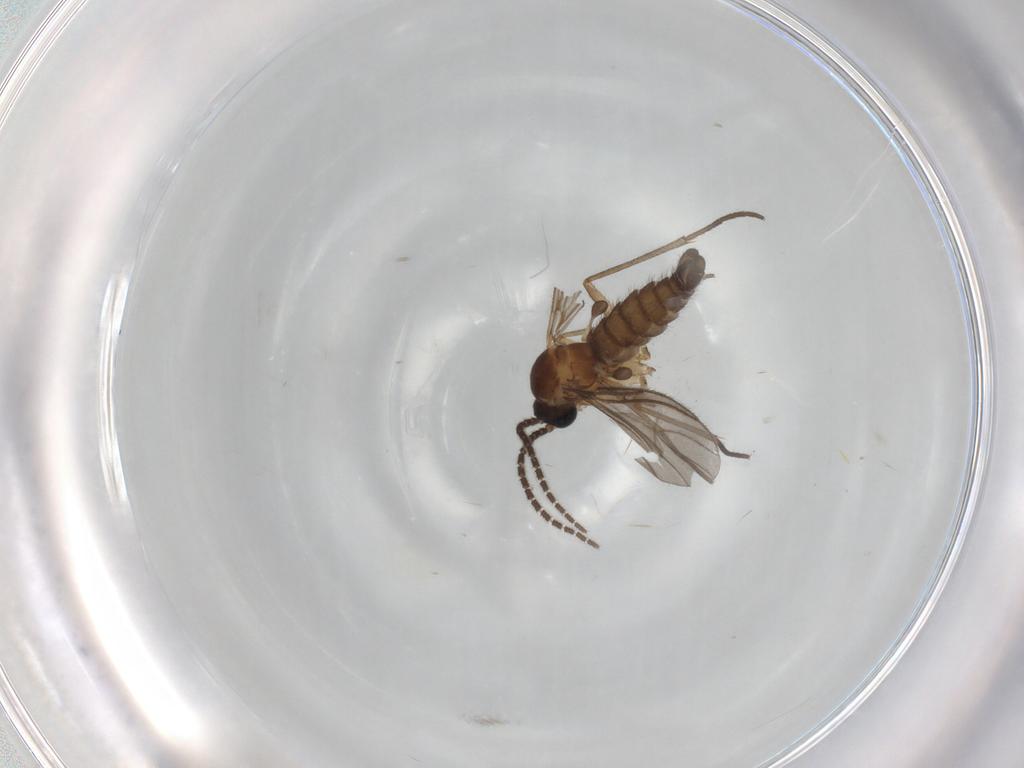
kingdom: Animalia
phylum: Arthropoda
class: Insecta
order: Diptera
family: Sciaridae
